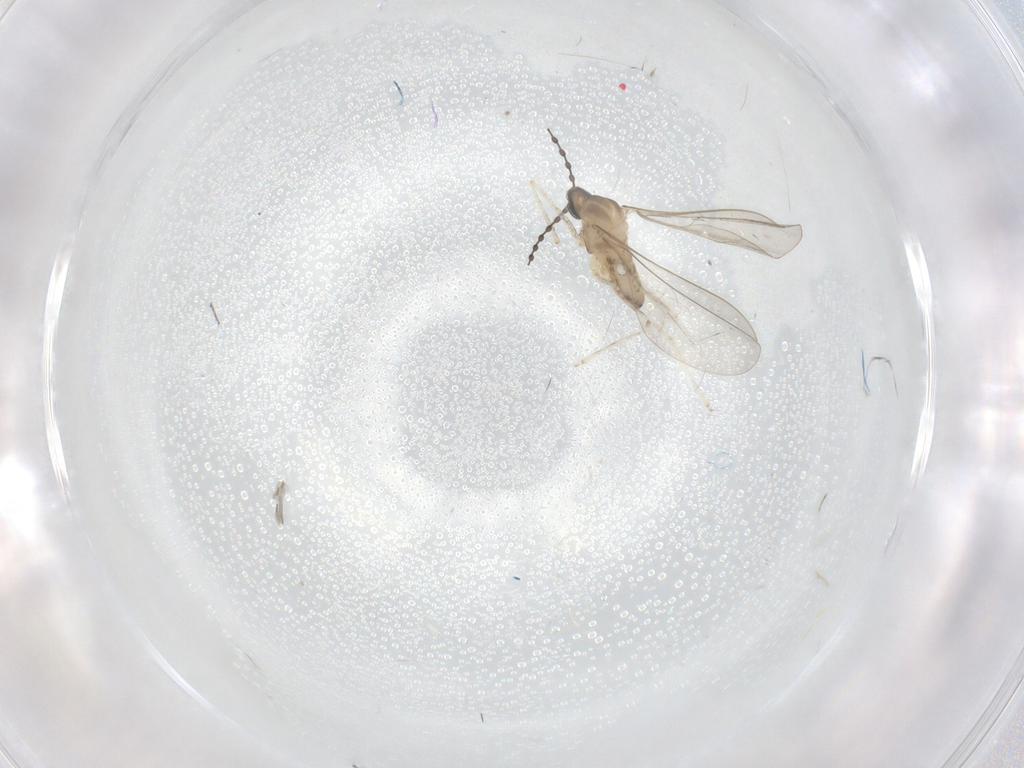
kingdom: Animalia
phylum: Arthropoda
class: Insecta
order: Diptera
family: Cecidomyiidae
